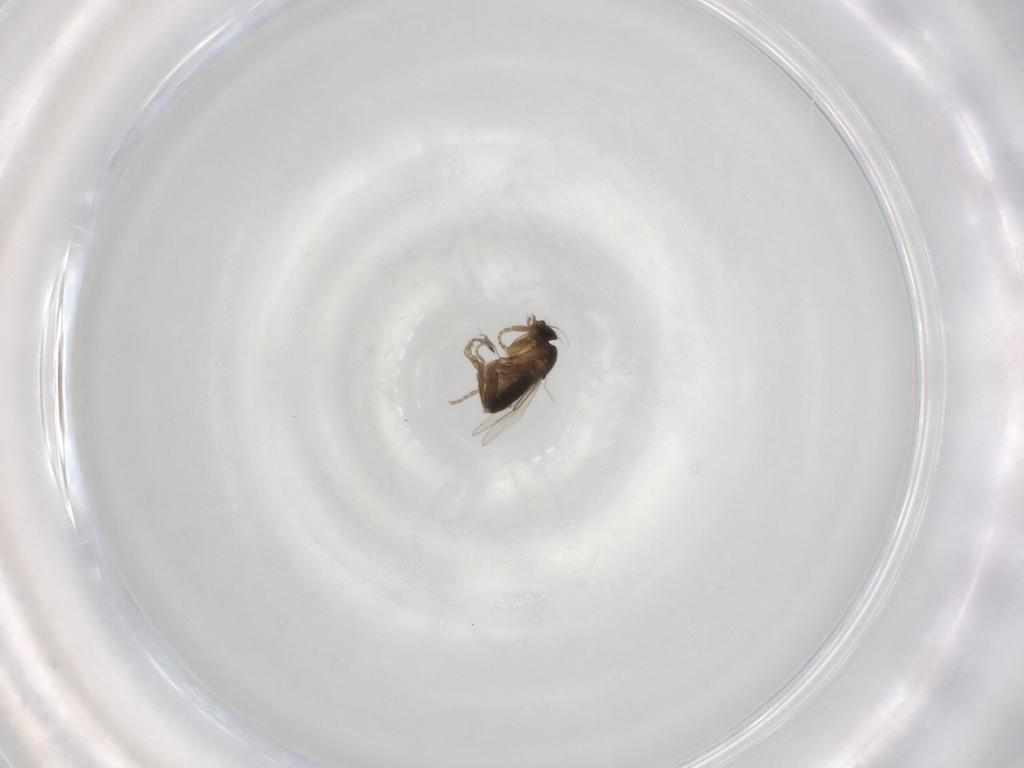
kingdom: Animalia
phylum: Arthropoda
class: Insecta
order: Diptera
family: Phoridae
